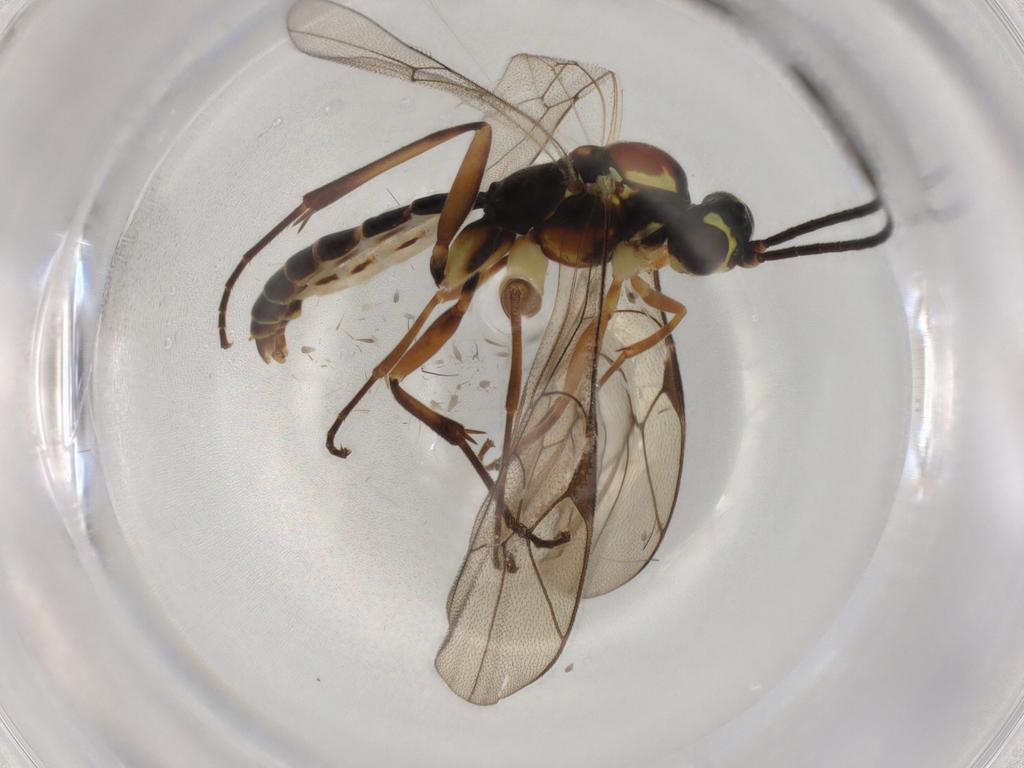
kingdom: Animalia
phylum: Arthropoda
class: Insecta
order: Hymenoptera
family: Ichneumonidae
